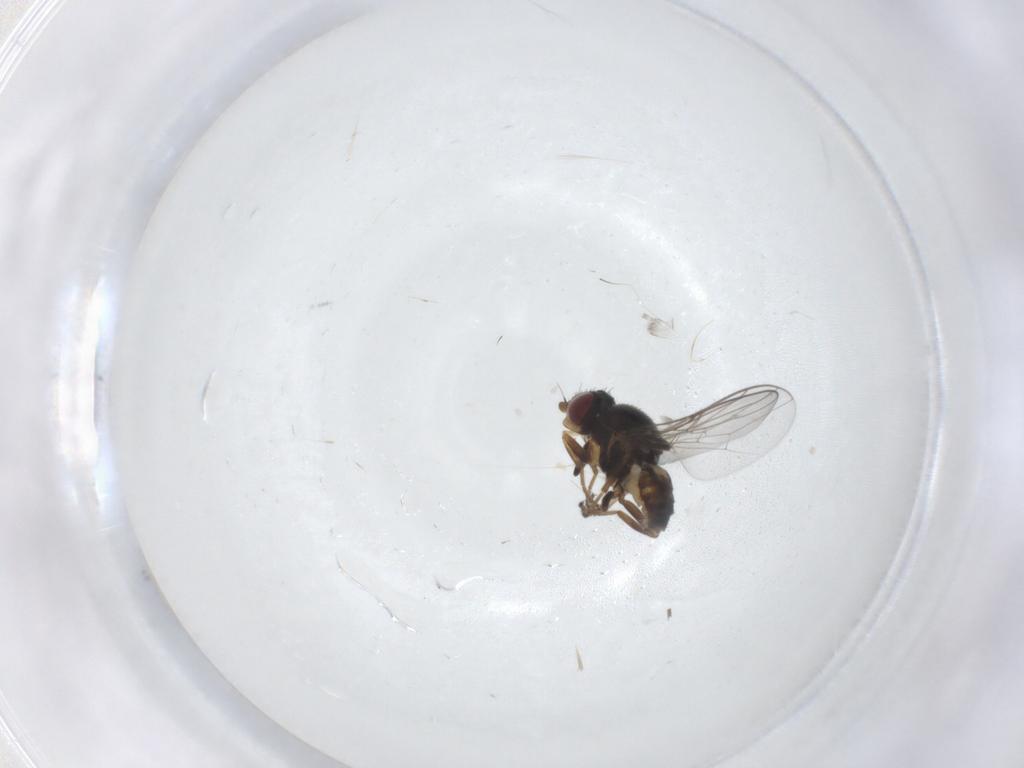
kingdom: Animalia
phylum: Arthropoda
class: Insecta
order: Diptera
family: Chloropidae
